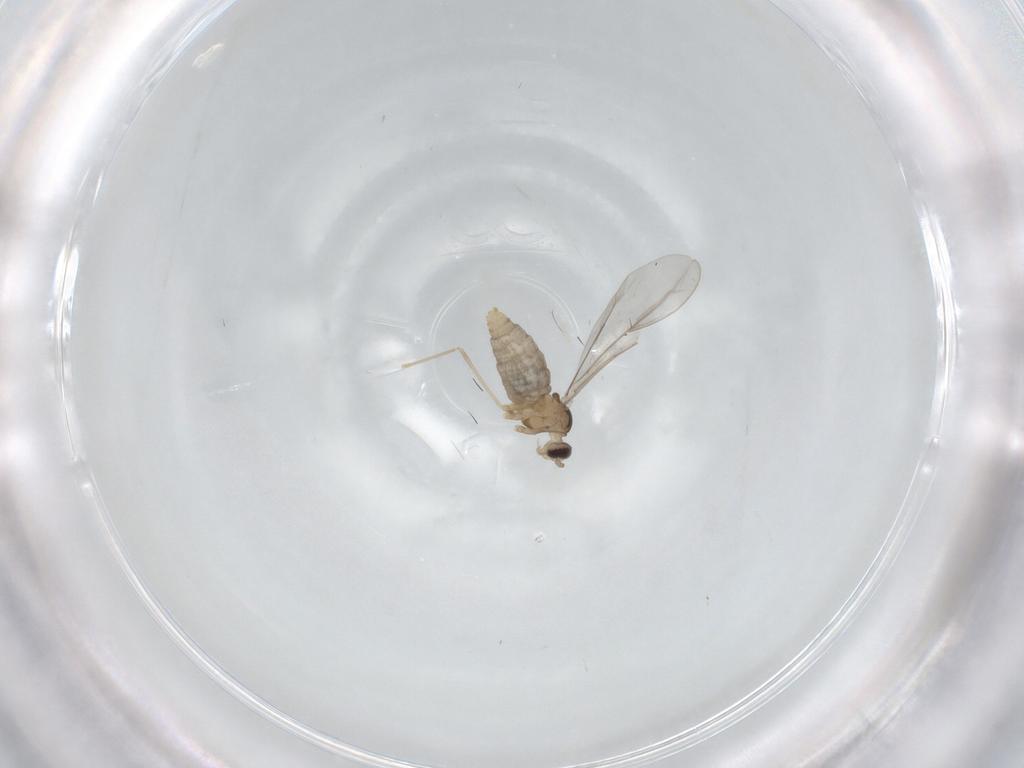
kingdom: Animalia
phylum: Arthropoda
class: Insecta
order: Diptera
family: Cecidomyiidae
